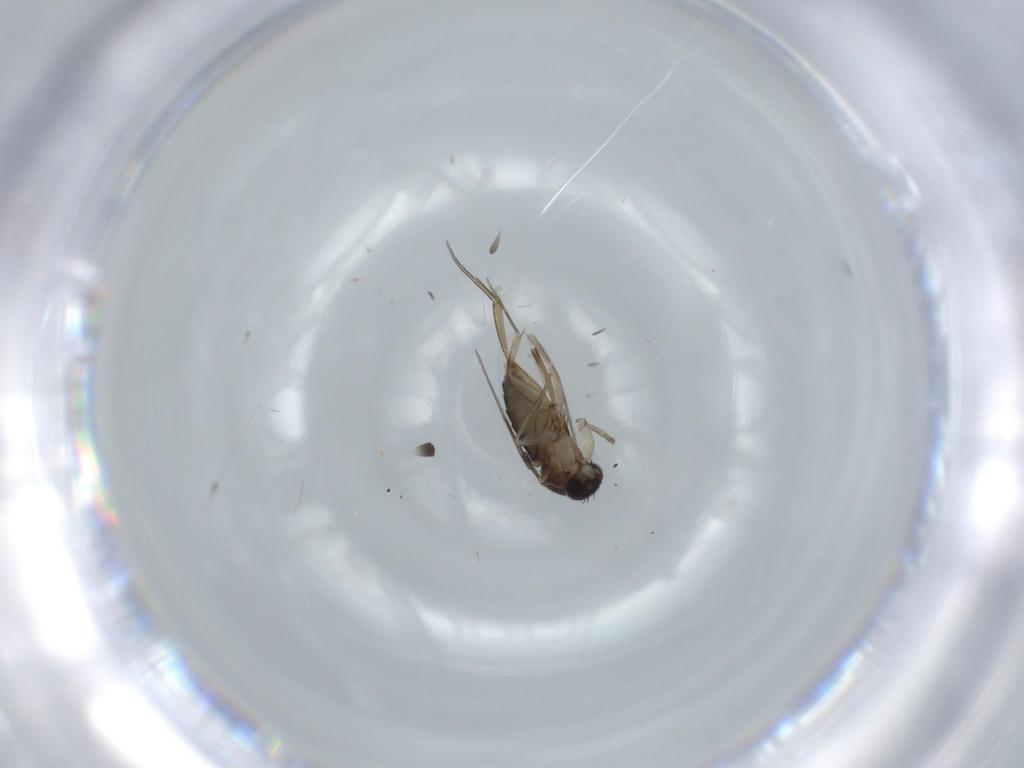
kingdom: Animalia
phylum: Arthropoda
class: Insecta
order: Diptera
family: Phoridae
